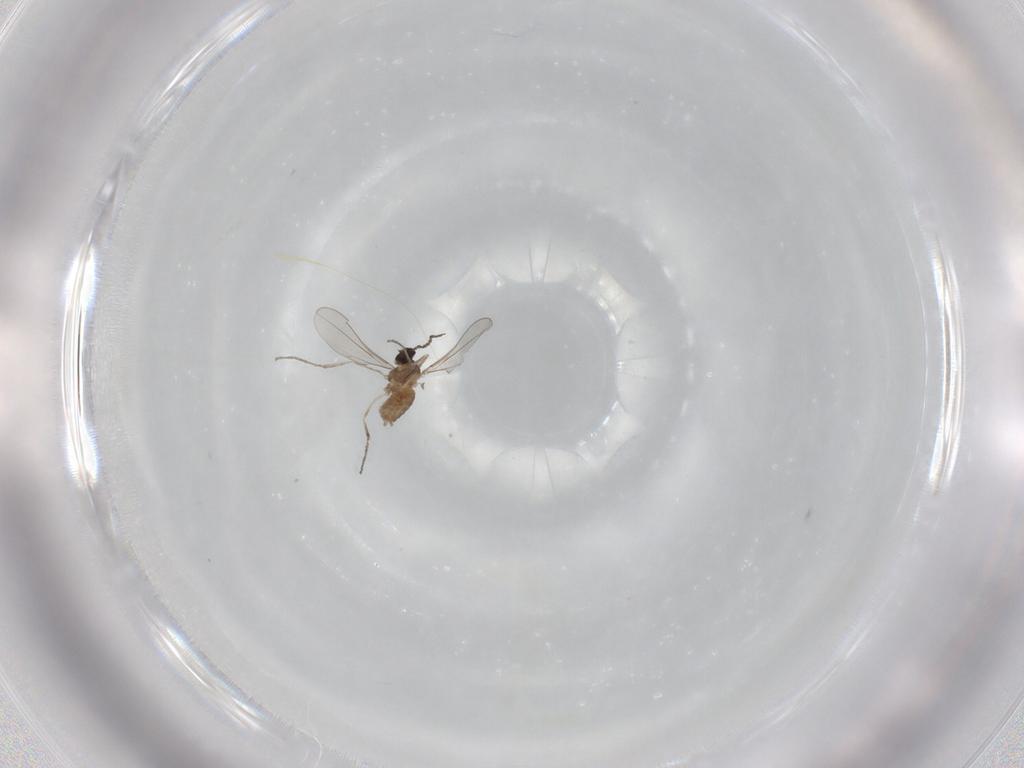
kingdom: Animalia
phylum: Arthropoda
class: Insecta
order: Diptera
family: Cecidomyiidae
